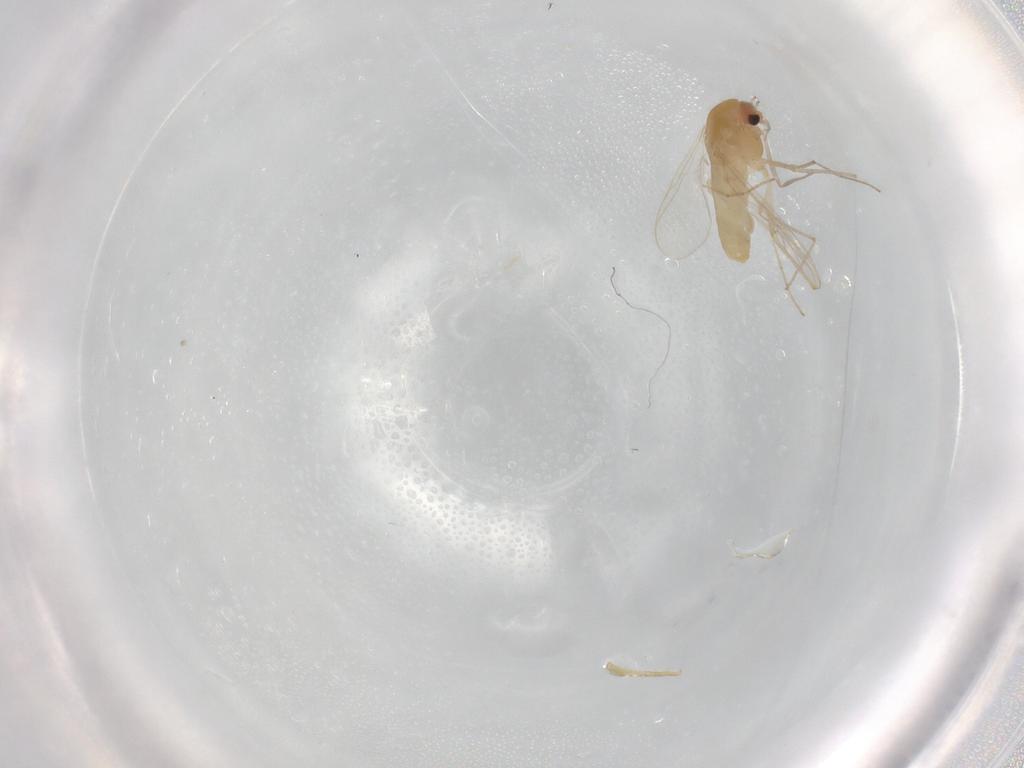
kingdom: Animalia
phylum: Arthropoda
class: Insecta
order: Diptera
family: Chironomidae
